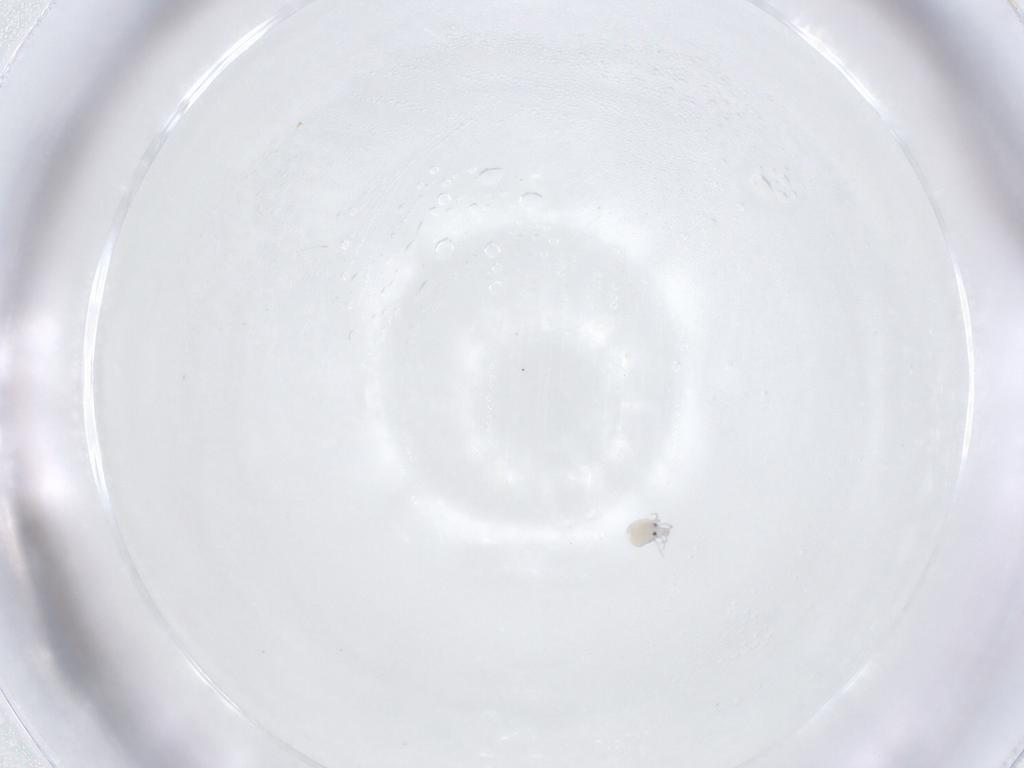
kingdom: Animalia
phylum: Arthropoda
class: Arachnida
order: Trombidiformes
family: Pionidae
